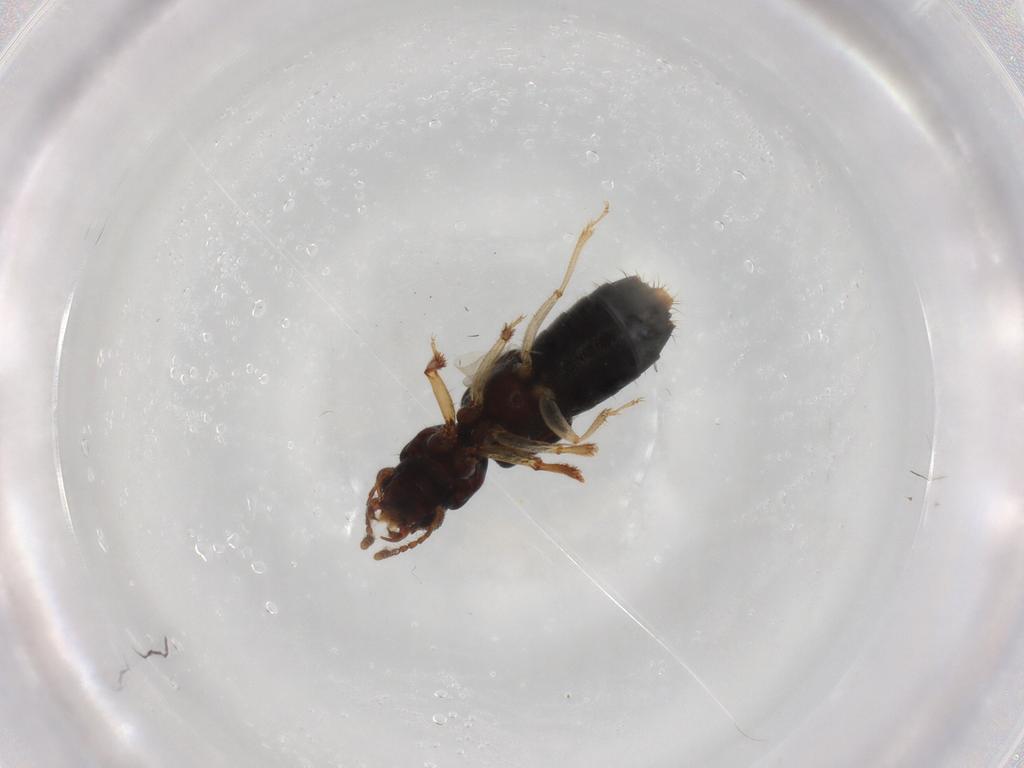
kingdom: Animalia
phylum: Arthropoda
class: Insecta
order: Coleoptera
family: Staphylinidae
